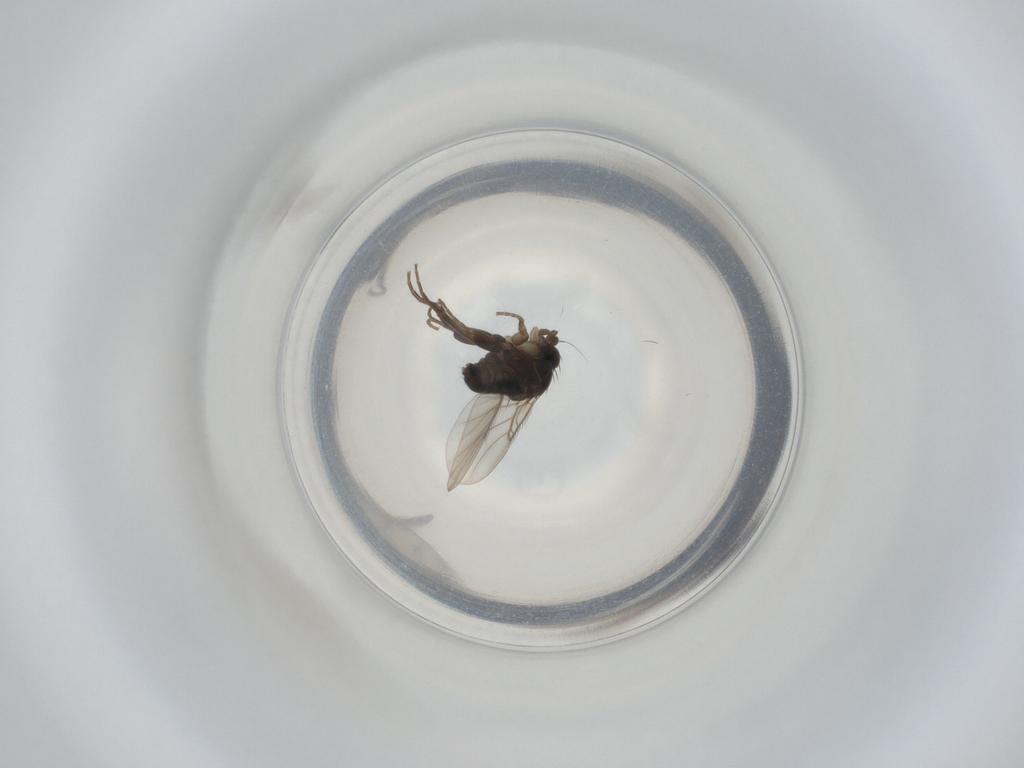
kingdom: Animalia
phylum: Arthropoda
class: Insecta
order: Diptera
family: Phoridae
